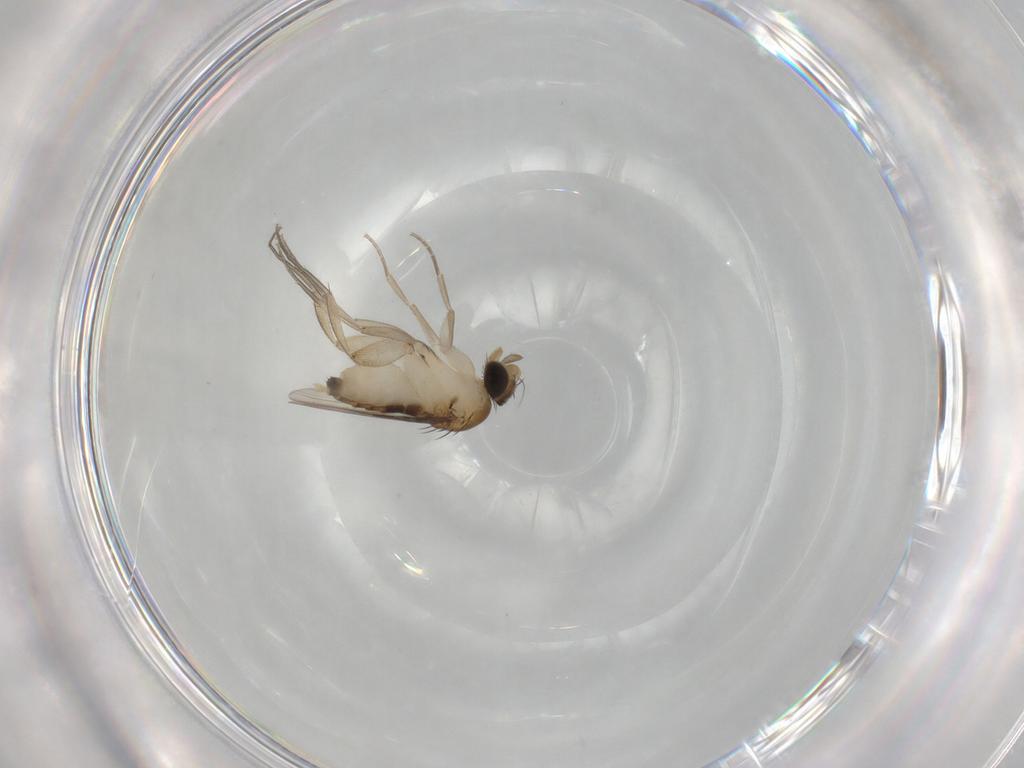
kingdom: Animalia
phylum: Arthropoda
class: Insecta
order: Diptera
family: Phoridae
